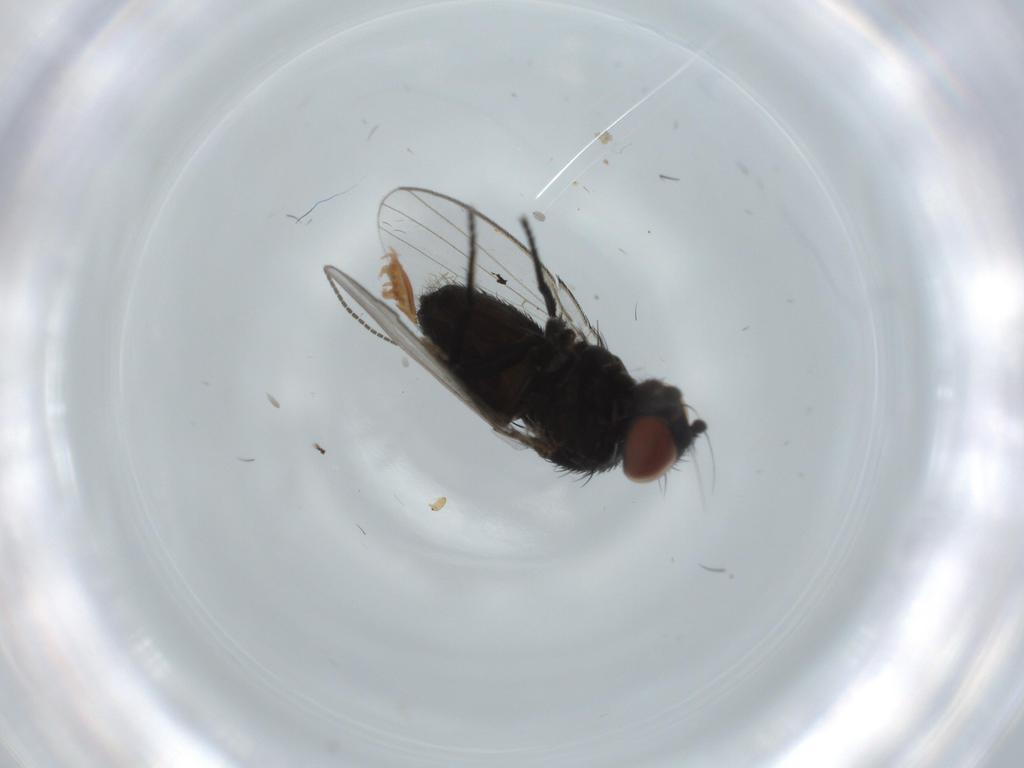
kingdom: Animalia
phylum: Arthropoda
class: Insecta
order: Diptera
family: Milichiidae
